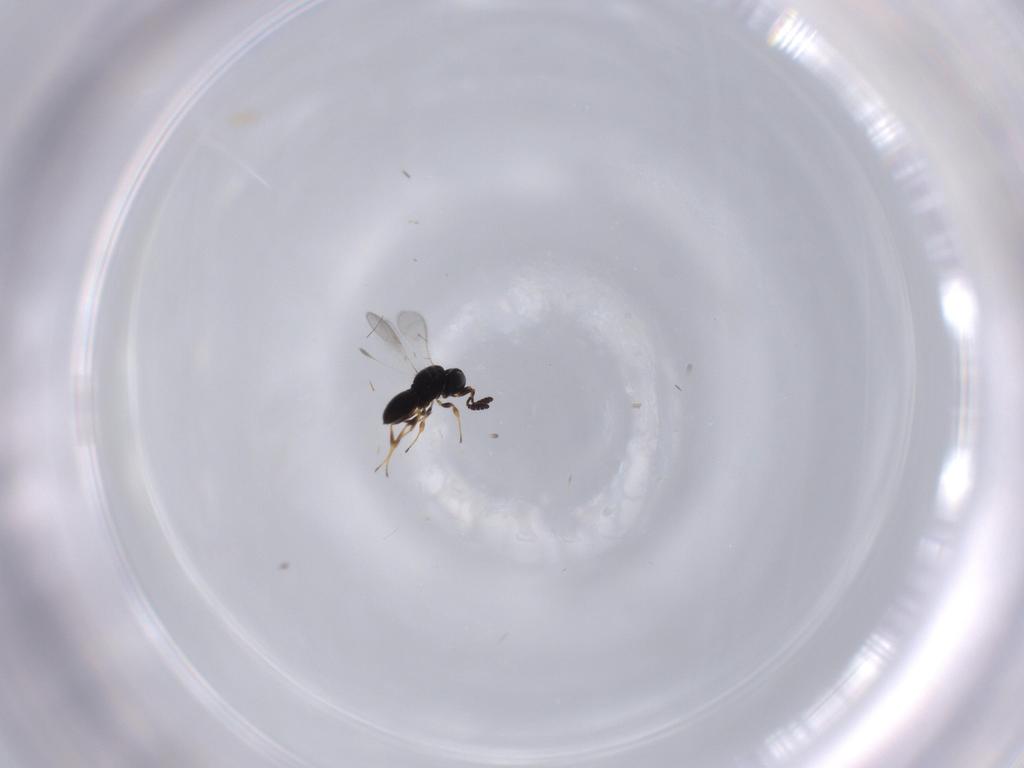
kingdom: Animalia
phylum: Arthropoda
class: Arachnida
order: Mesostigmata
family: Digamasellidae
